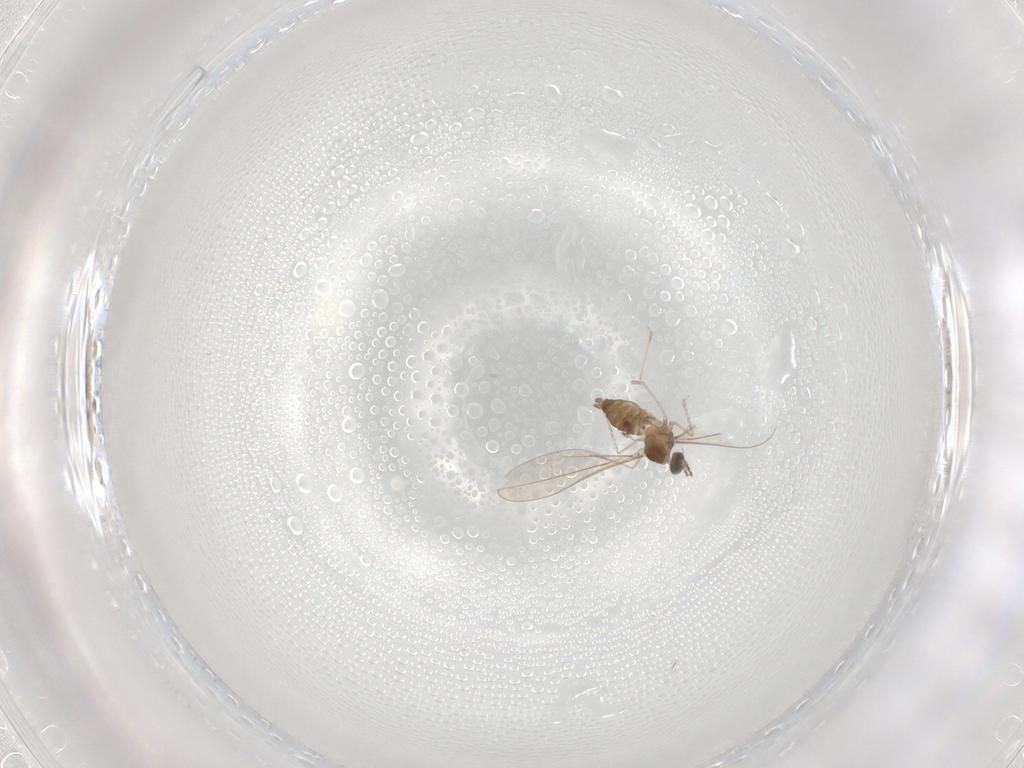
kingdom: Animalia
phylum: Arthropoda
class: Insecta
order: Diptera
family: Cecidomyiidae
